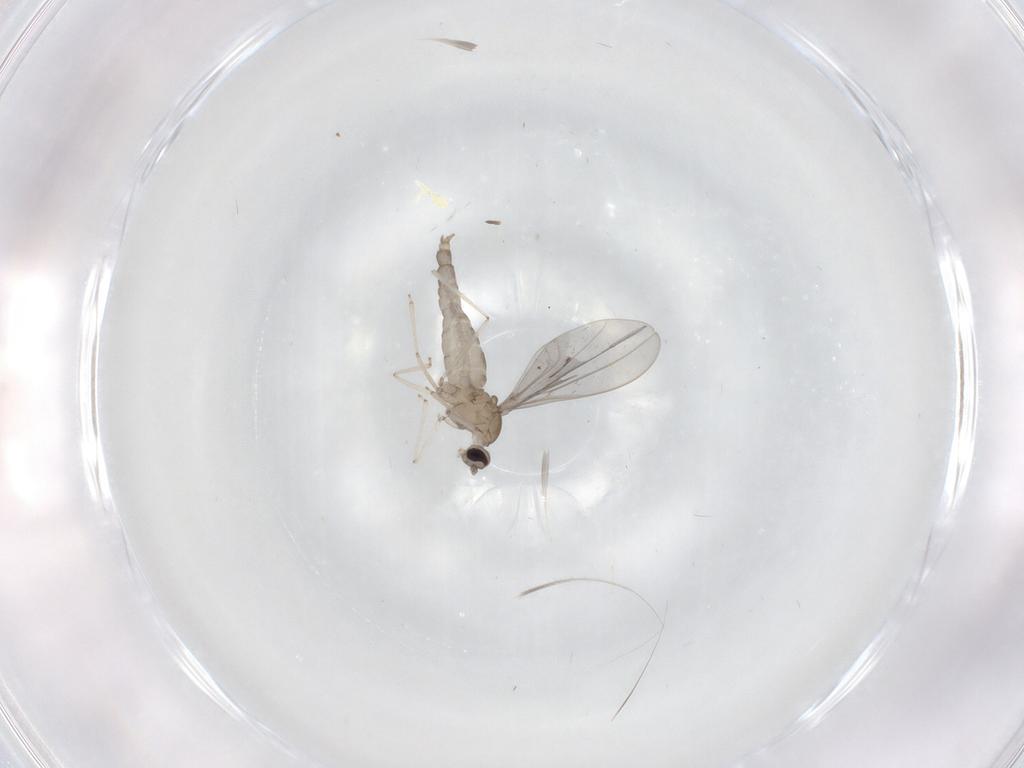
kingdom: Animalia
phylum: Arthropoda
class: Insecta
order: Diptera
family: Cecidomyiidae
